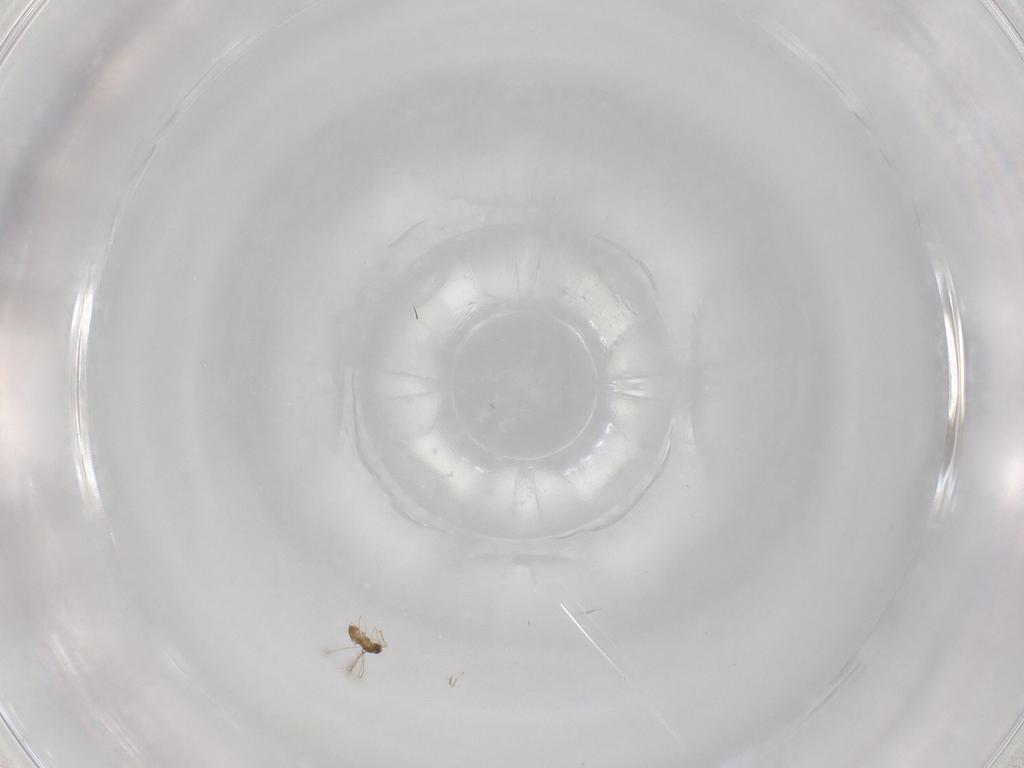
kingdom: Animalia
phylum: Arthropoda
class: Insecta
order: Hymenoptera
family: Mymaridae
